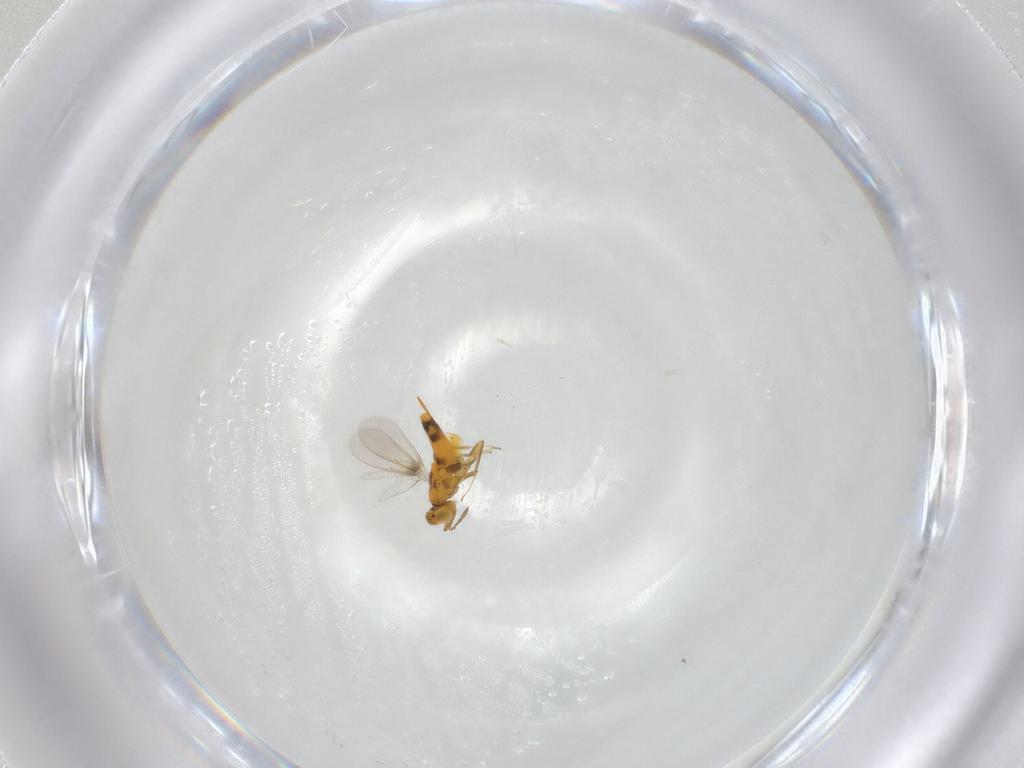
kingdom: Animalia
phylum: Arthropoda
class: Insecta
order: Hymenoptera
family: Aphelinidae
